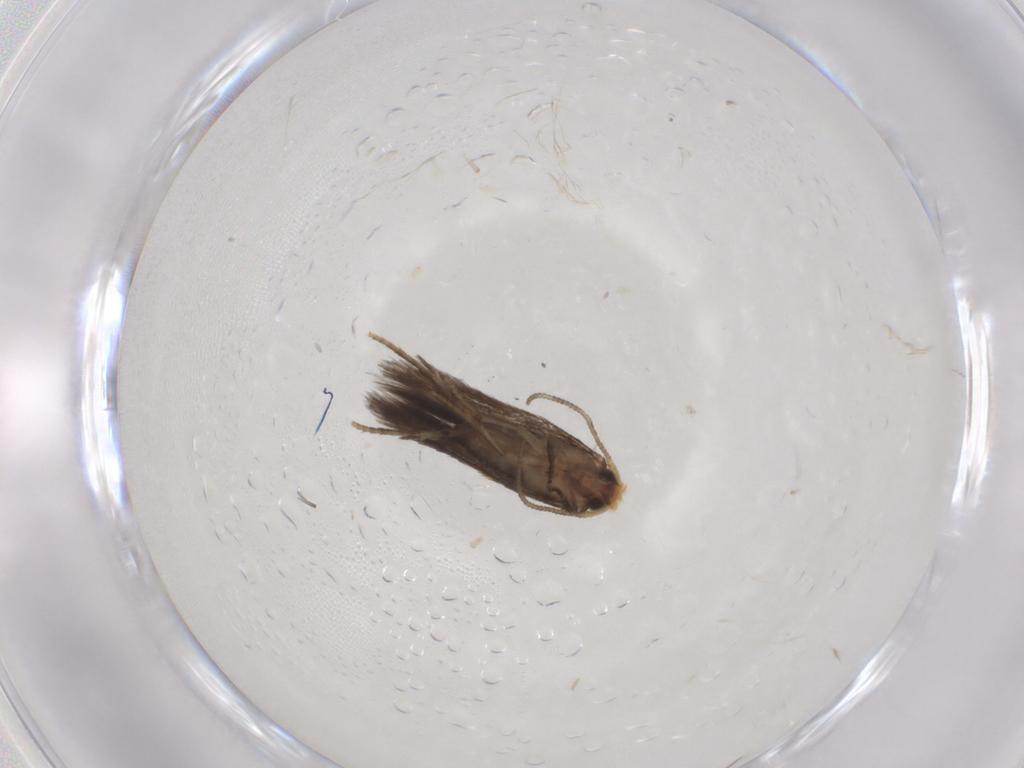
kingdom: Animalia
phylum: Arthropoda
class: Insecta
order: Lepidoptera
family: Nepticulidae
